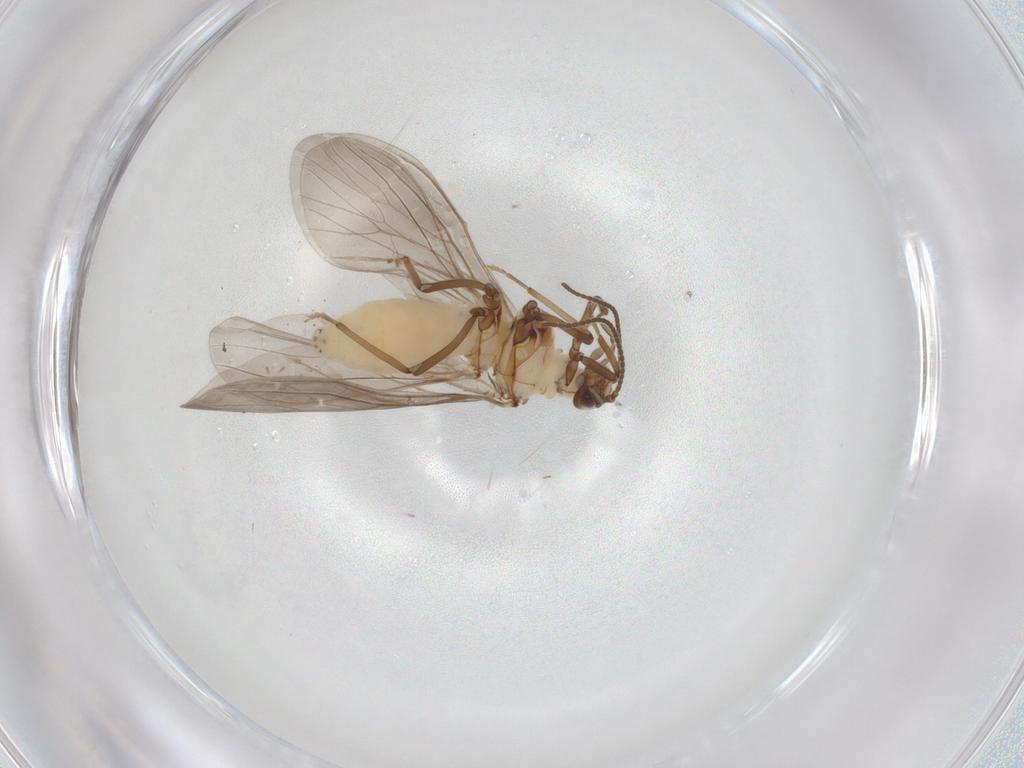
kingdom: Animalia
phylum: Arthropoda
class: Insecta
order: Neuroptera
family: Coniopterygidae
